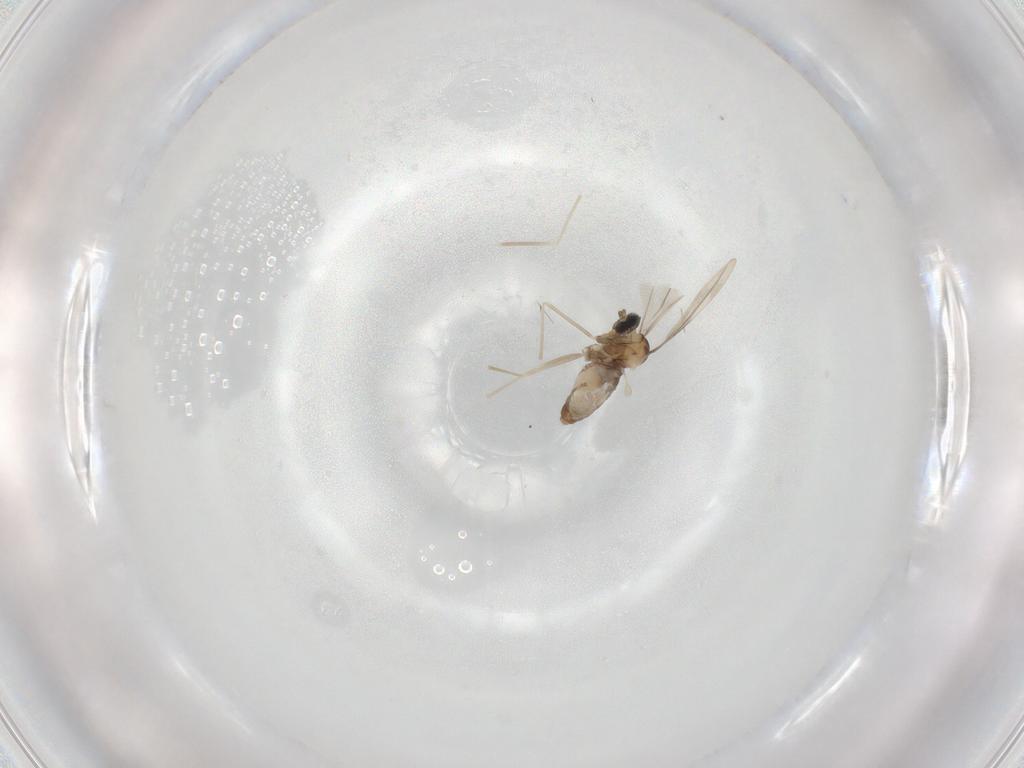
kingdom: Animalia
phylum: Arthropoda
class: Insecta
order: Diptera
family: Cecidomyiidae
